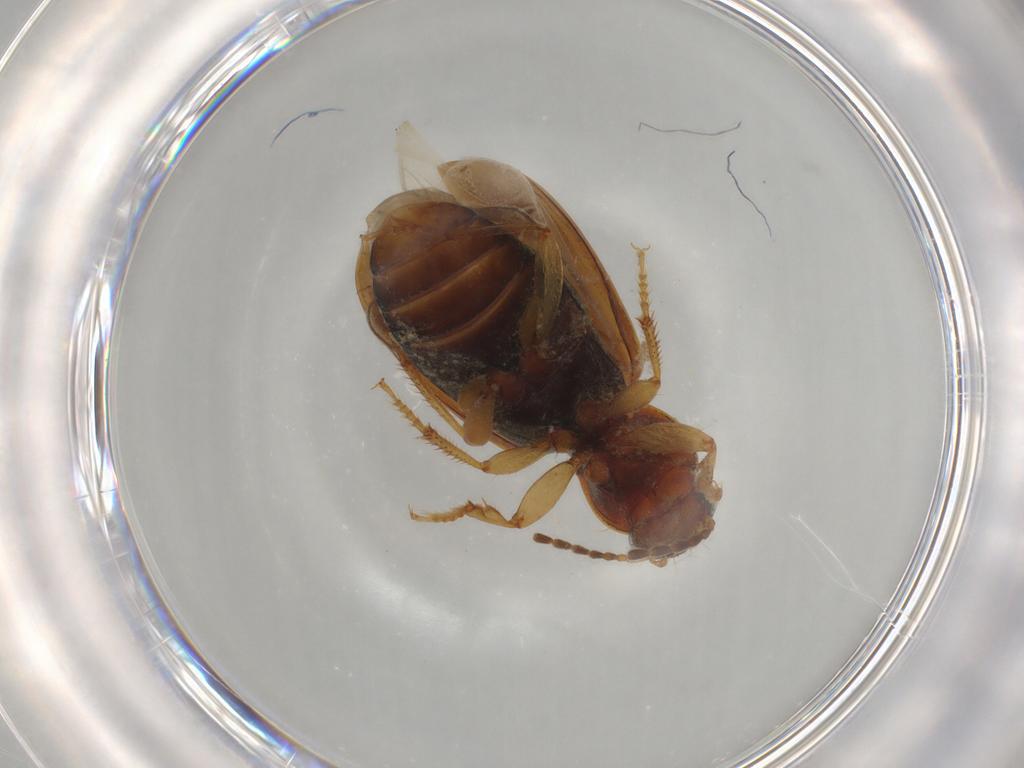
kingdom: Animalia
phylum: Arthropoda
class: Insecta
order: Coleoptera
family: Carabidae
